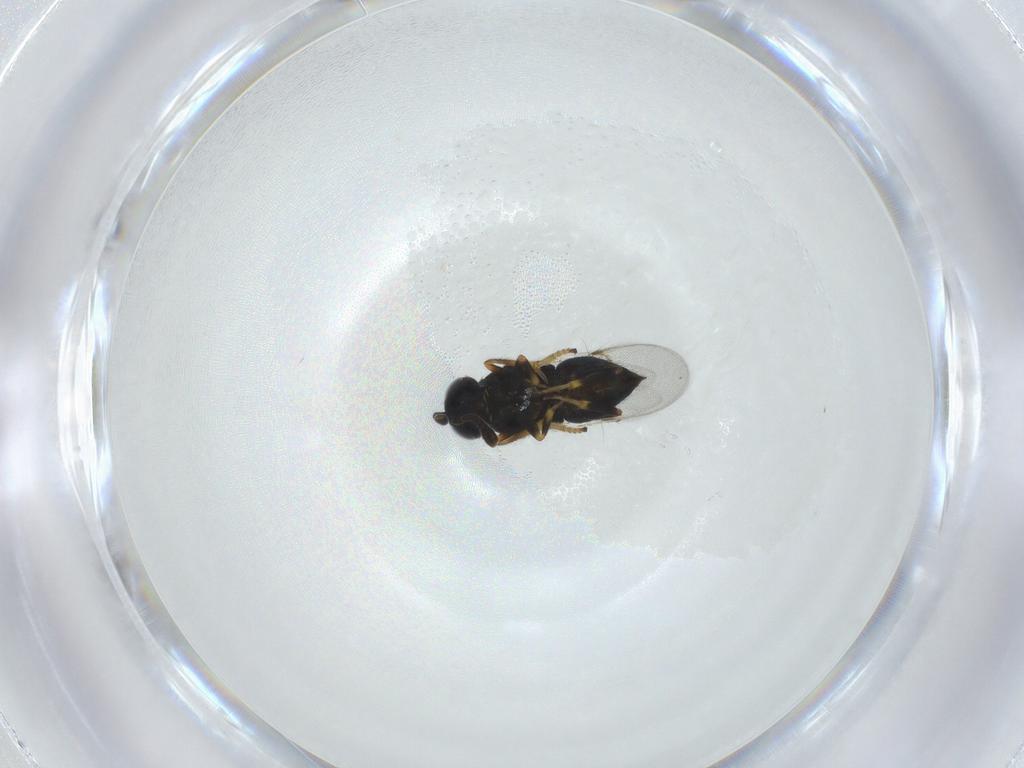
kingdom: Animalia
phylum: Arthropoda
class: Insecta
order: Hymenoptera
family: Encyrtidae
